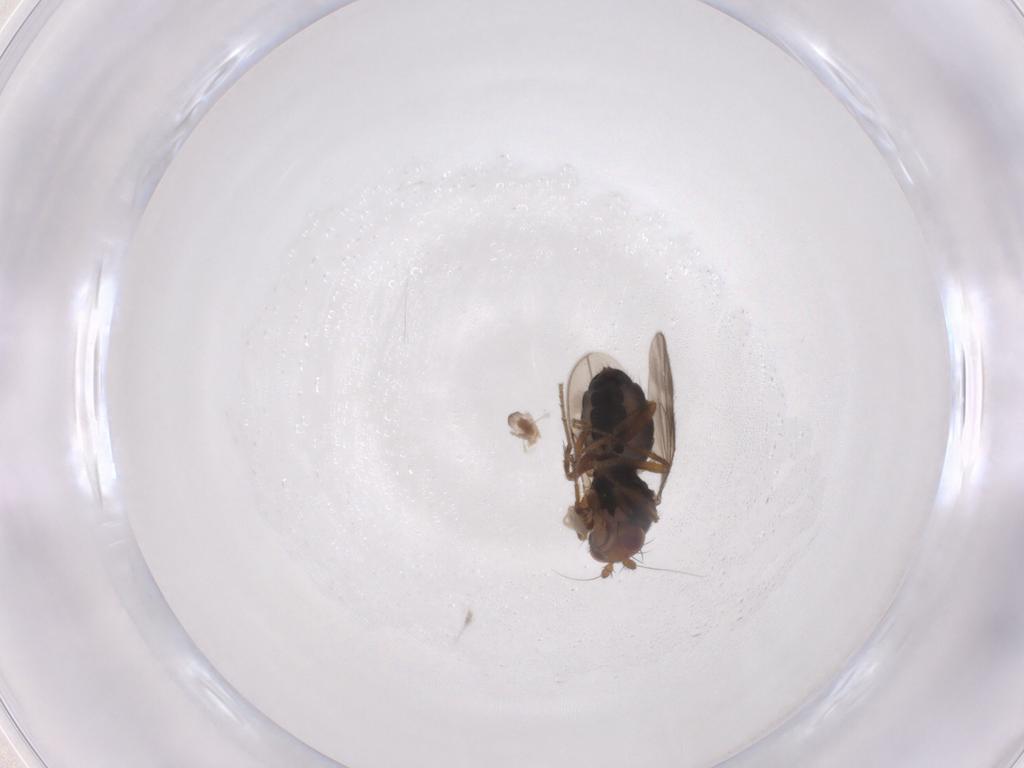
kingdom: Animalia
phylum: Arthropoda
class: Insecta
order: Diptera
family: Sphaeroceridae
